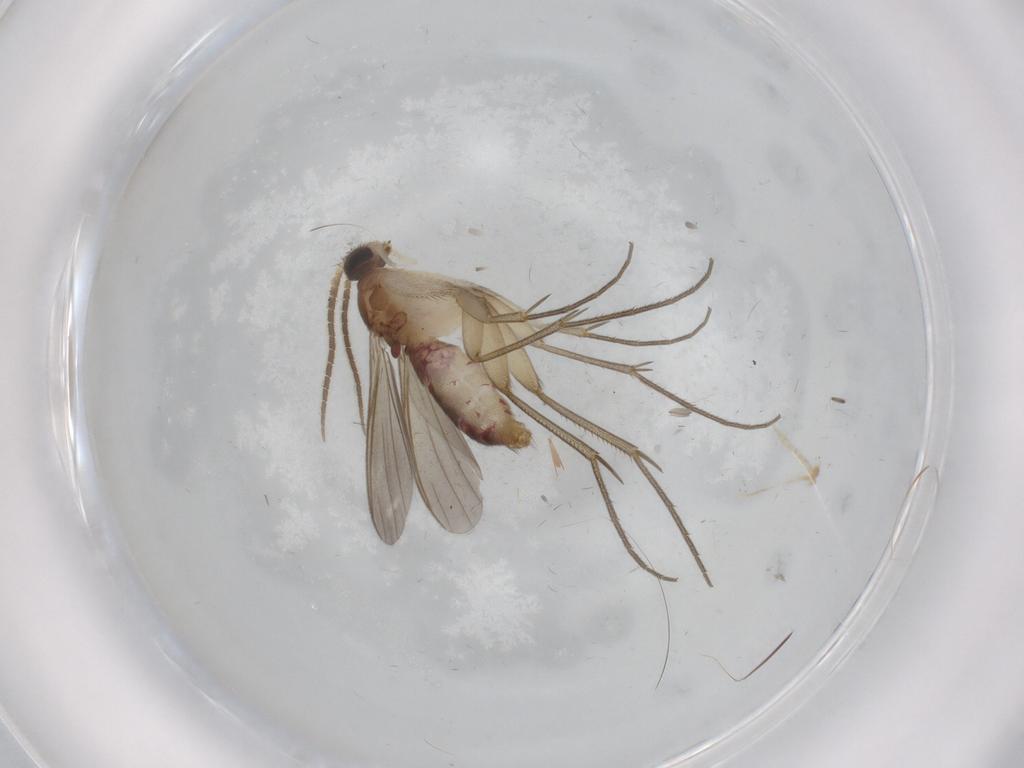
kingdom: Animalia
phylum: Arthropoda
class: Insecta
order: Diptera
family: Mycetophilidae
